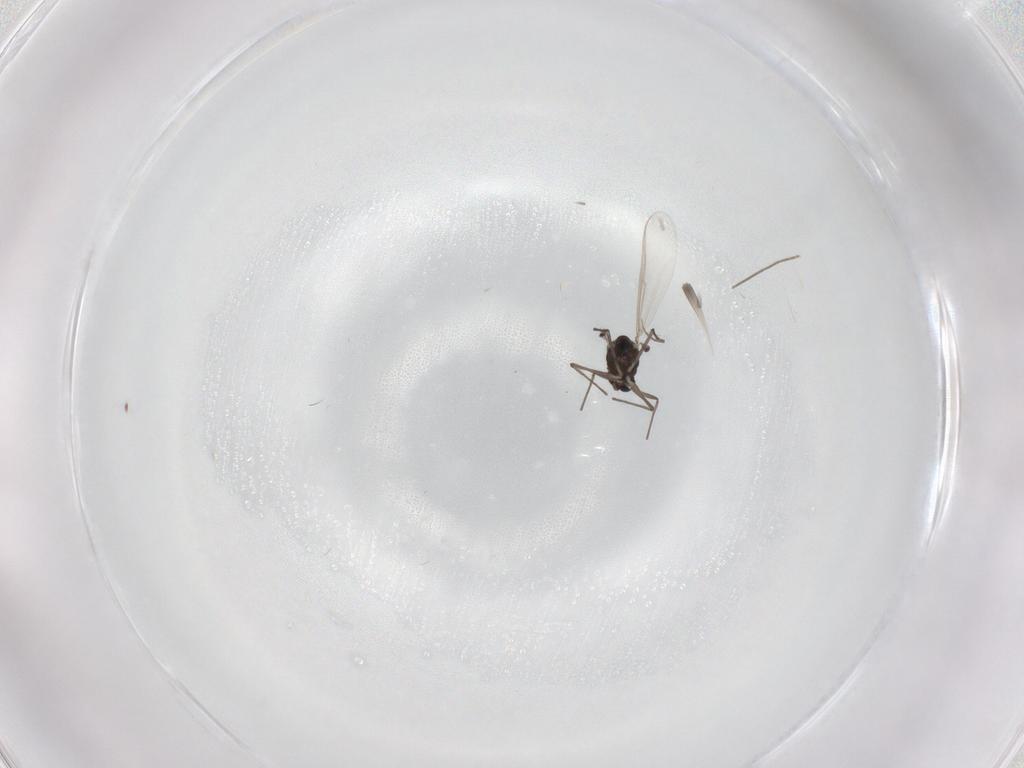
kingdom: Animalia
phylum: Arthropoda
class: Insecta
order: Diptera
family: Chironomidae
